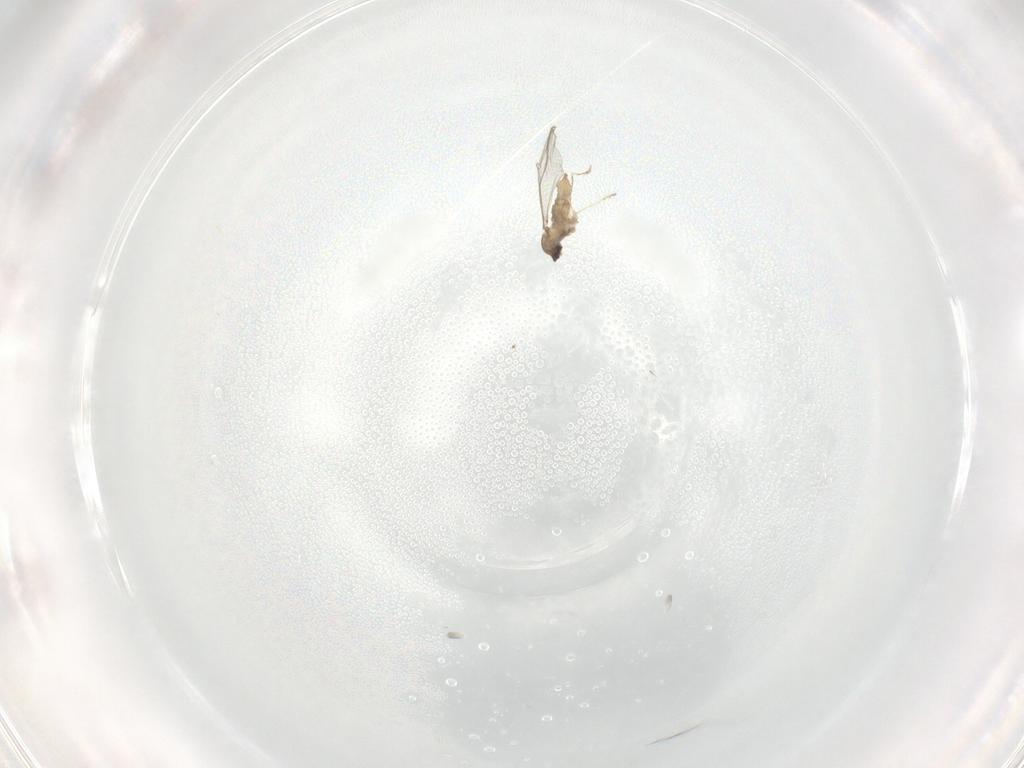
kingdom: Animalia
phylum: Arthropoda
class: Insecta
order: Diptera
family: Cecidomyiidae
